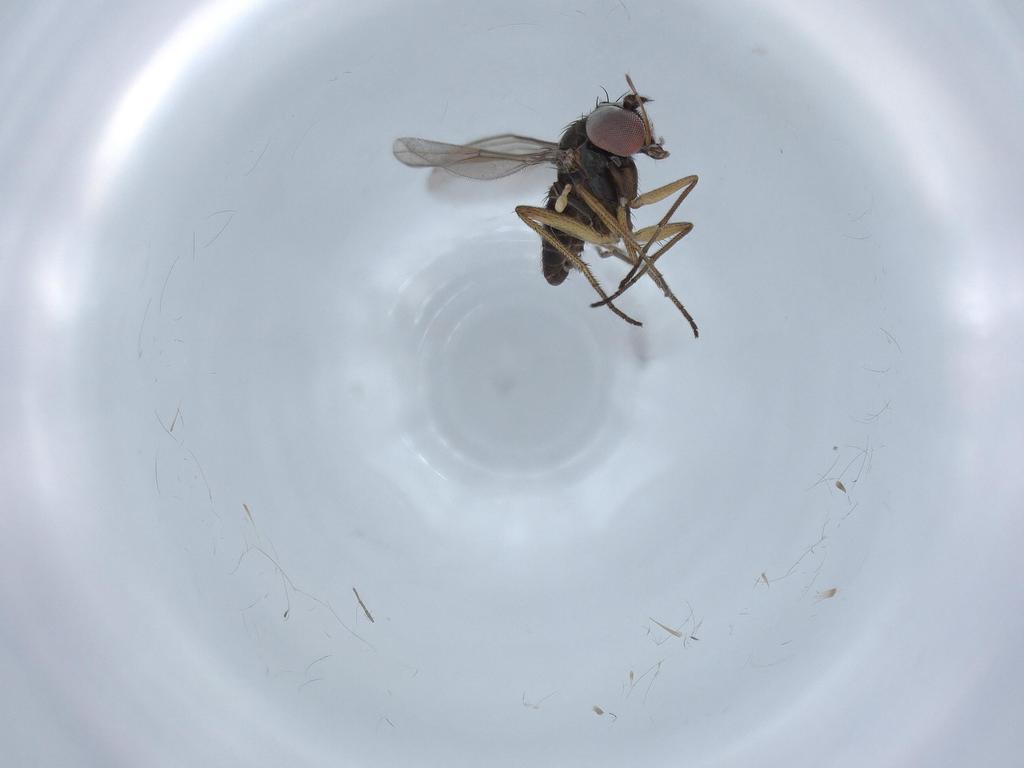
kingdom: Animalia
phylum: Arthropoda
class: Insecta
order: Diptera
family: Dolichopodidae
